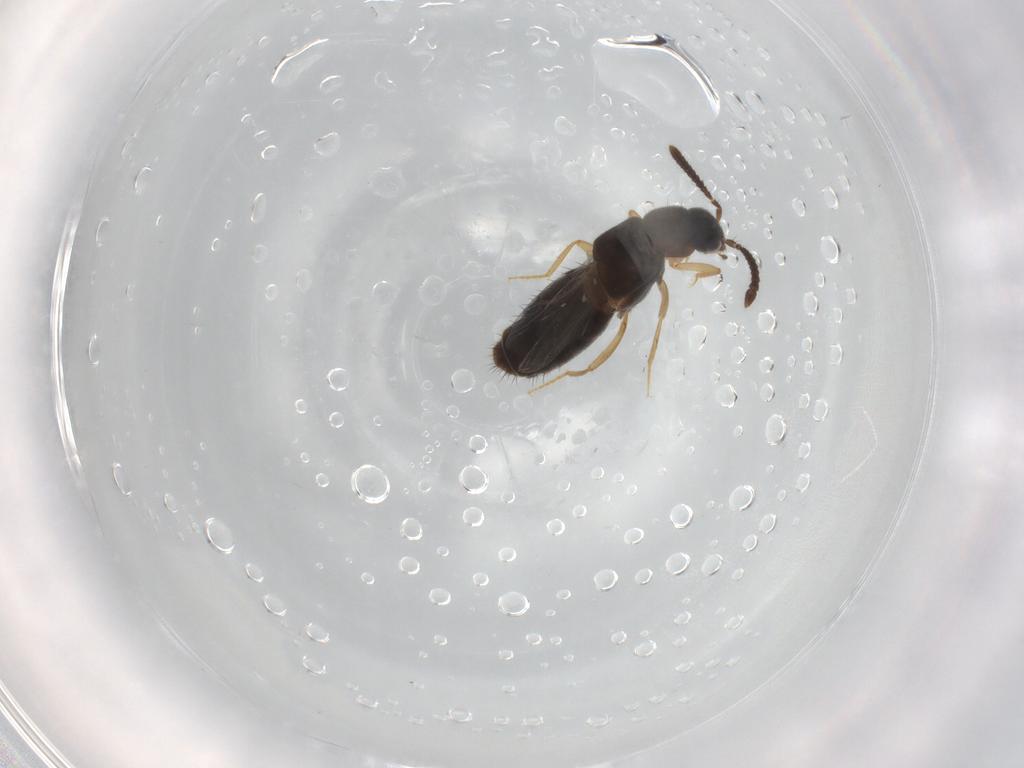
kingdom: Animalia
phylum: Arthropoda
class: Insecta
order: Coleoptera
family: Staphylinidae
